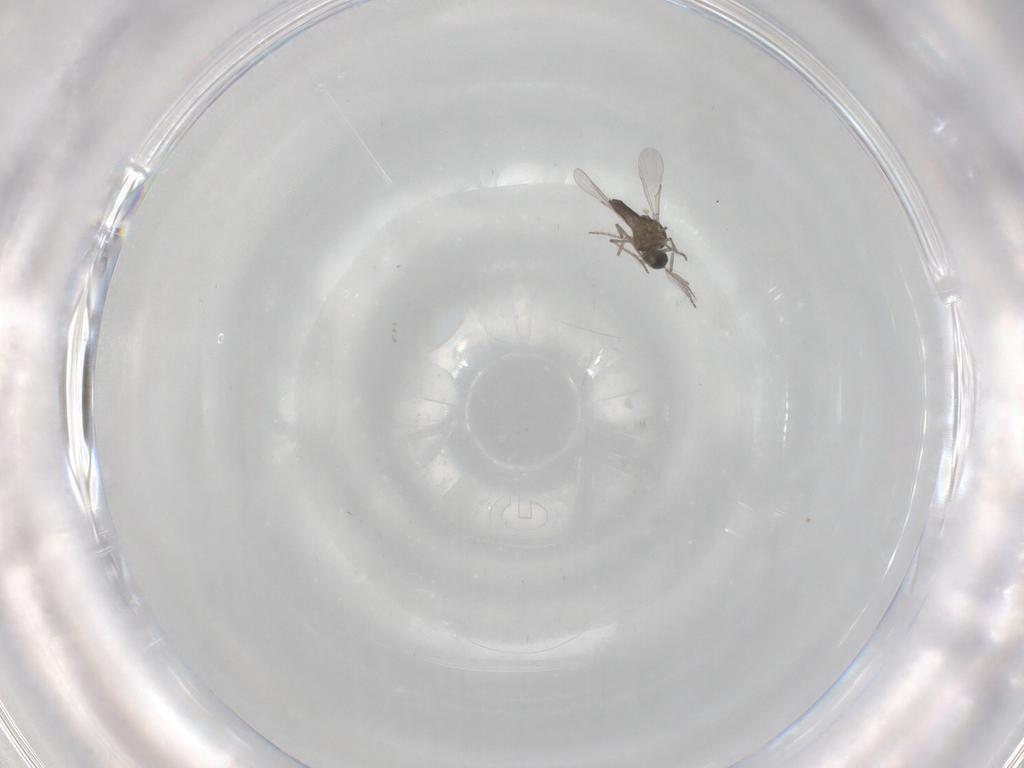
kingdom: Animalia
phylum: Arthropoda
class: Insecta
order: Diptera
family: Ceratopogonidae
